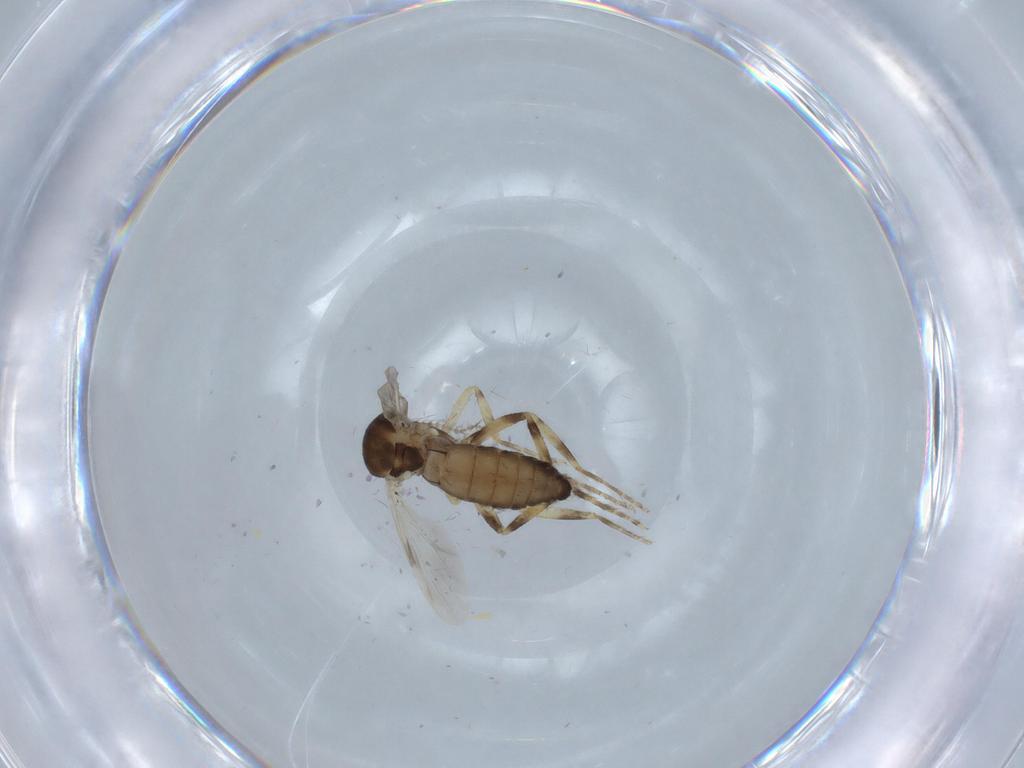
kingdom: Animalia
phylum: Arthropoda
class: Insecta
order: Diptera
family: Ceratopogonidae
